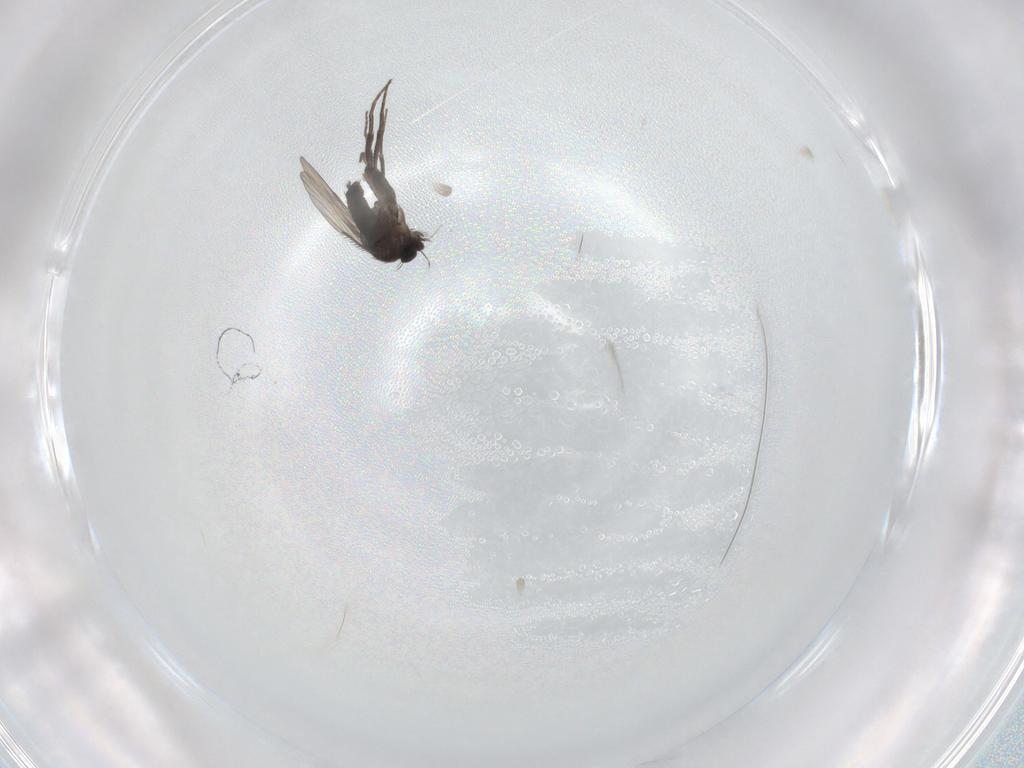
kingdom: Animalia
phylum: Arthropoda
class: Insecta
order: Diptera
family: Phoridae
